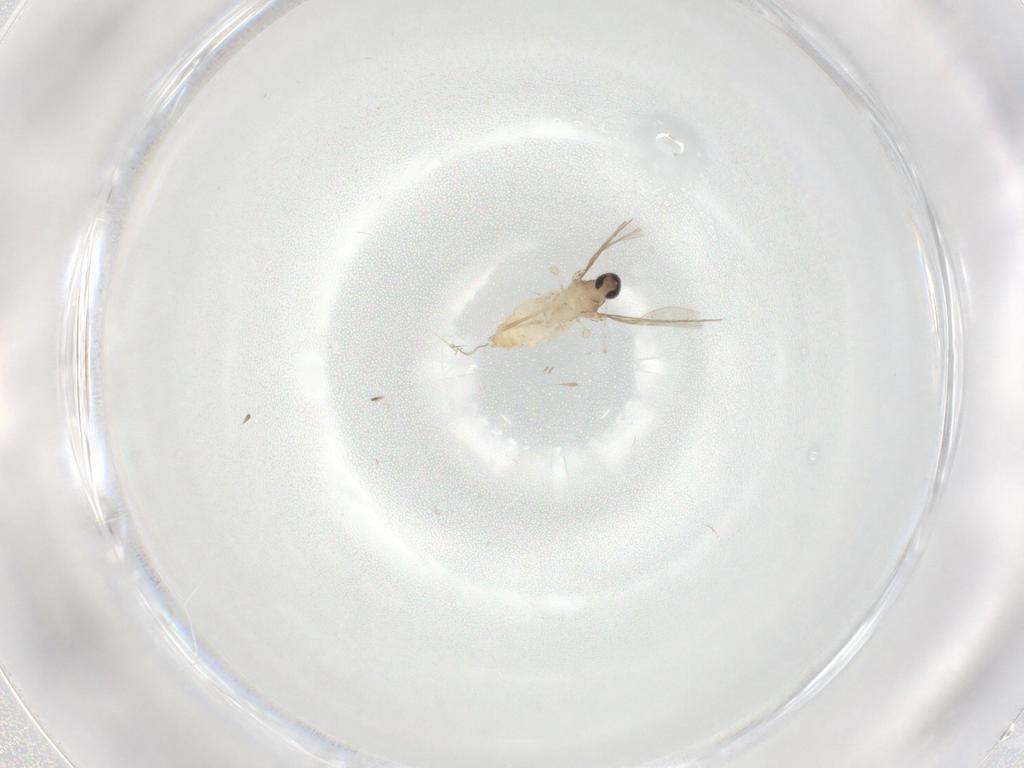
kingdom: Animalia
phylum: Arthropoda
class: Insecta
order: Diptera
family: Cecidomyiidae
